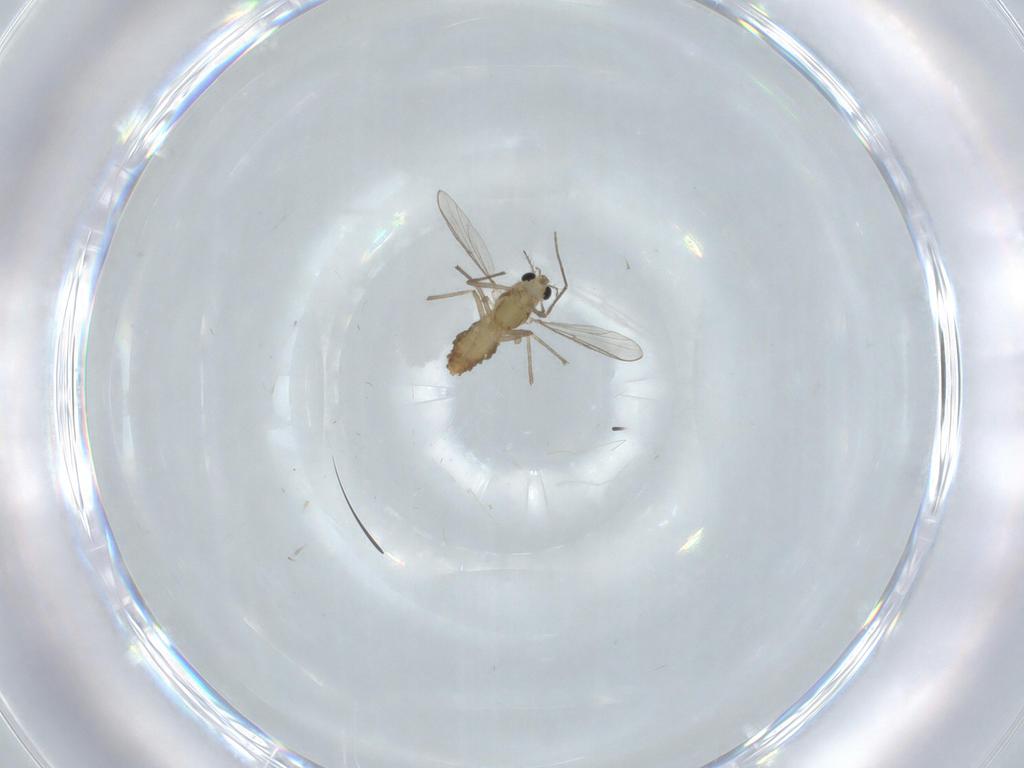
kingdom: Animalia
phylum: Arthropoda
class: Insecta
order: Diptera
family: Chironomidae
